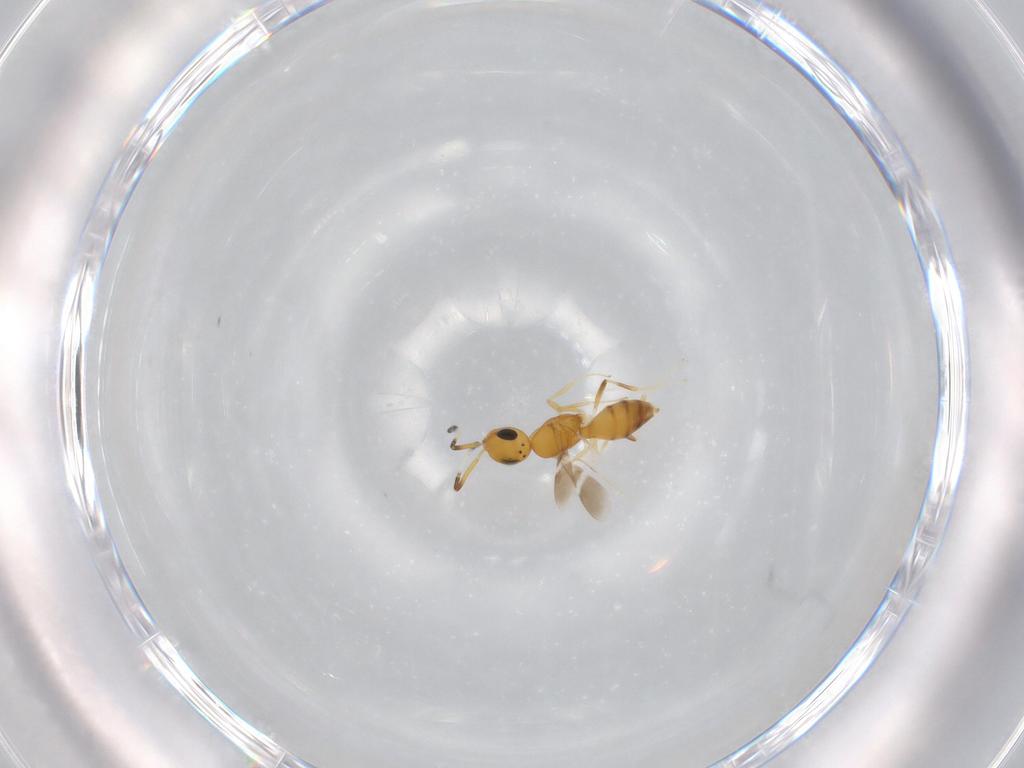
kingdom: Animalia
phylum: Arthropoda
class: Insecta
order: Hymenoptera
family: Scelionidae
